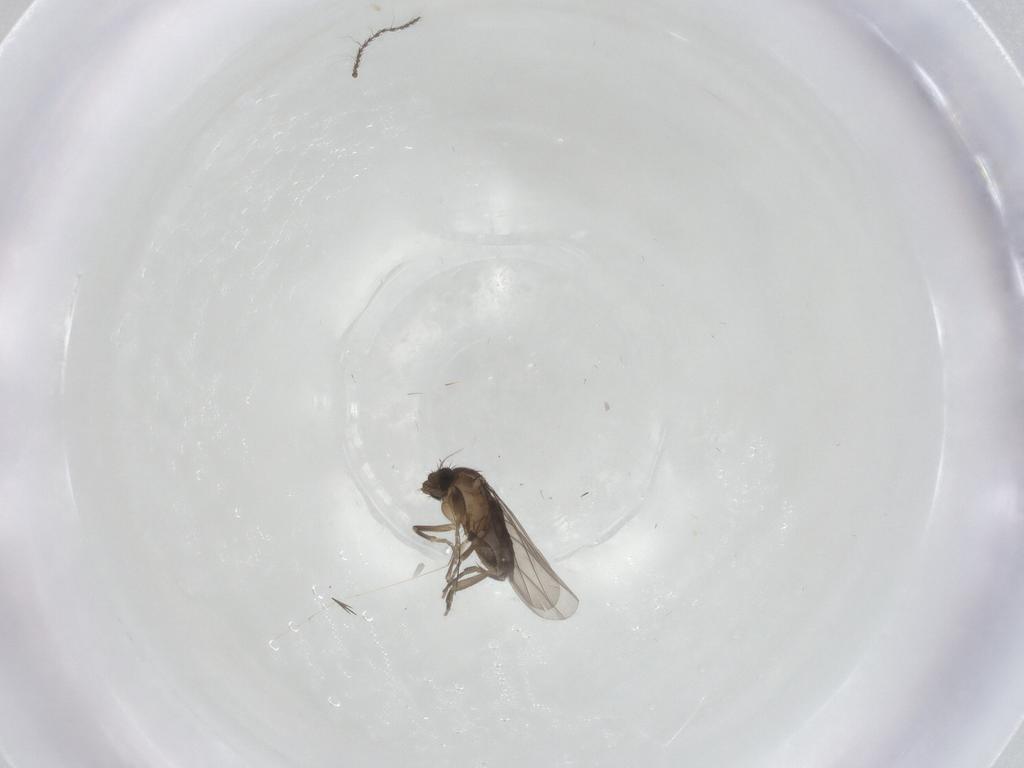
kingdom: Animalia
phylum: Arthropoda
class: Insecta
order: Diptera
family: Cecidomyiidae
